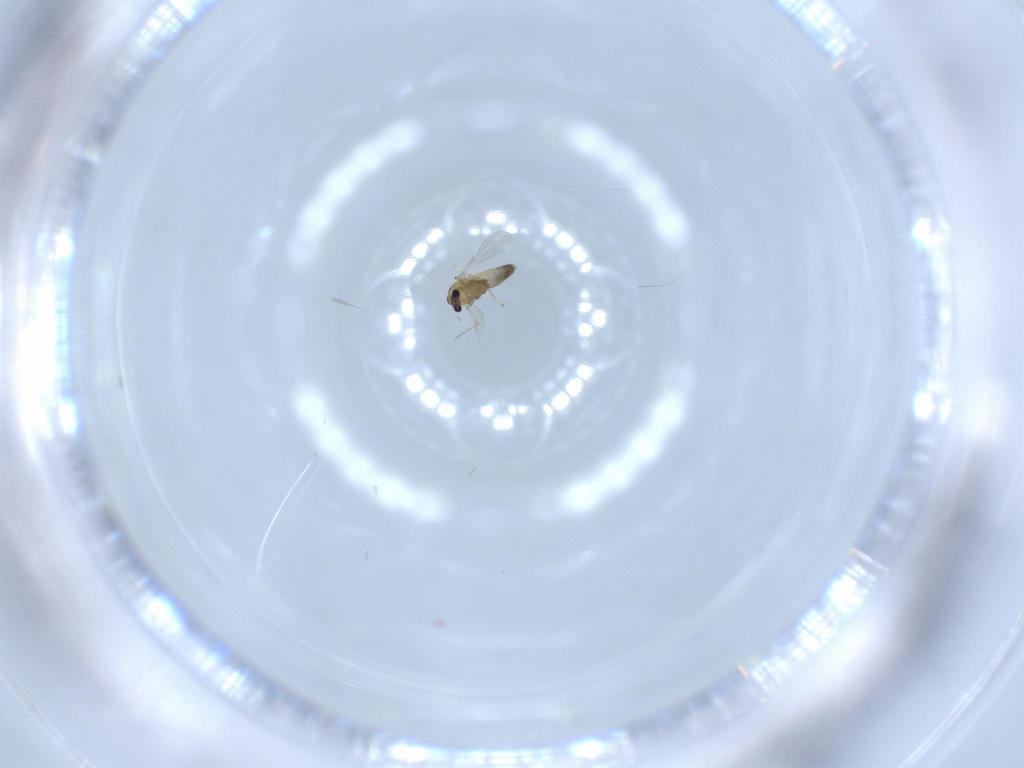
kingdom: Animalia
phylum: Arthropoda
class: Insecta
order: Diptera
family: Chironomidae
